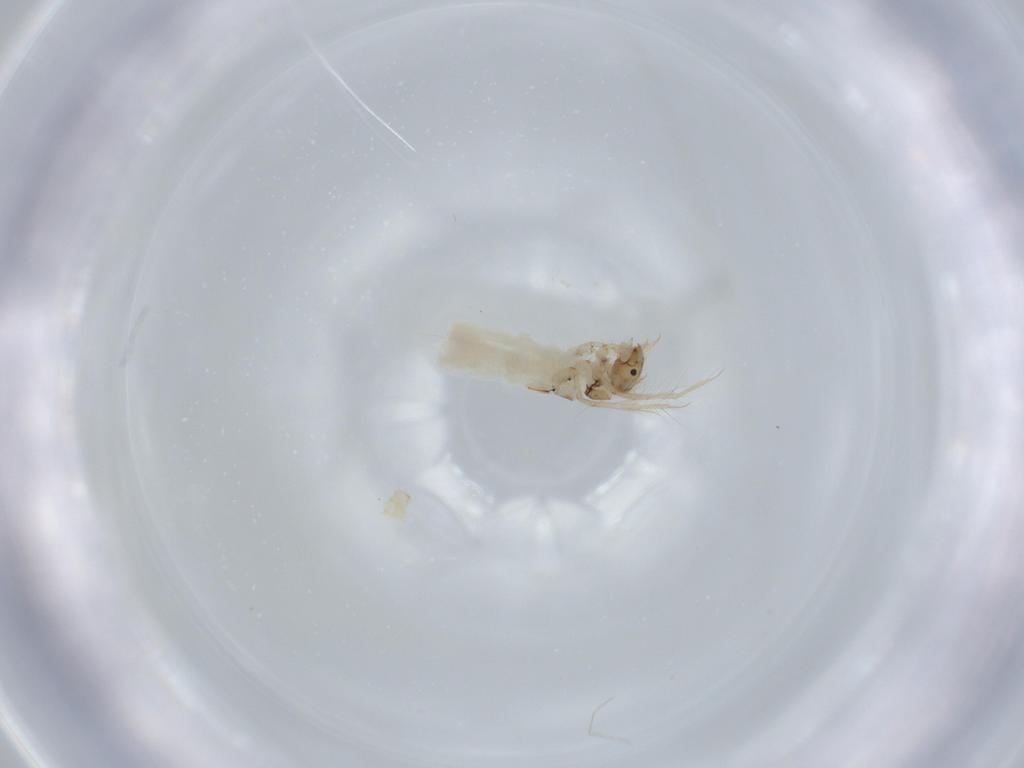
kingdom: Animalia
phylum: Arthropoda
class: Insecta
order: Trichoptera
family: Leptoceridae
